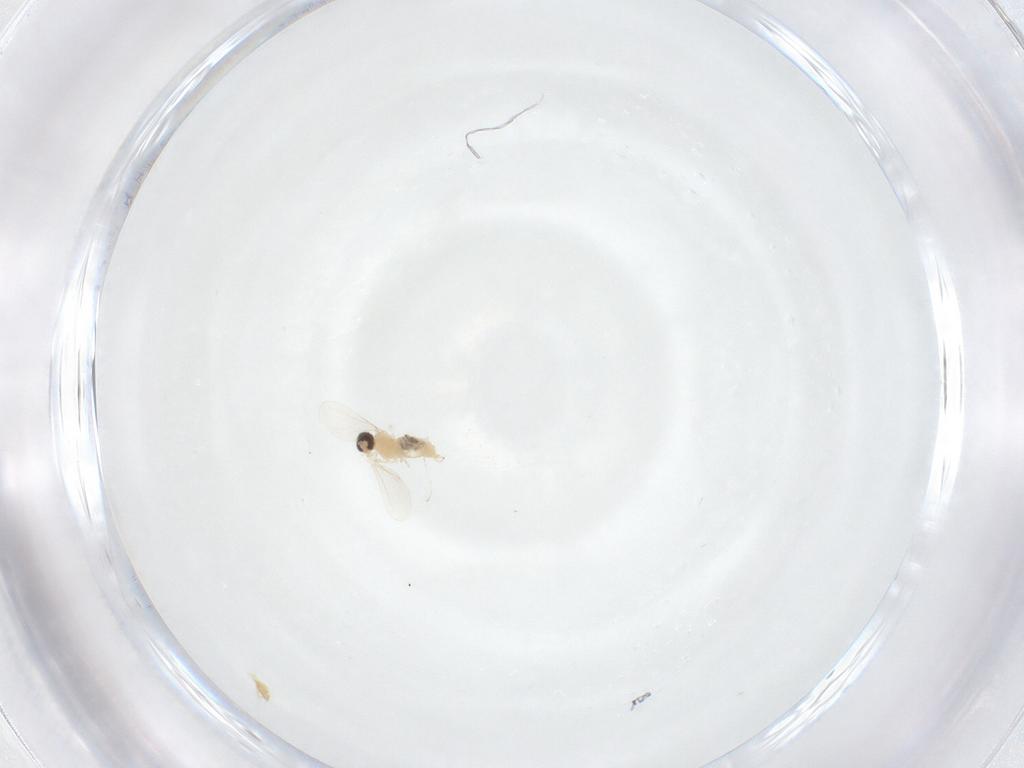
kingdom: Animalia
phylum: Arthropoda
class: Insecta
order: Diptera
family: Cecidomyiidae
